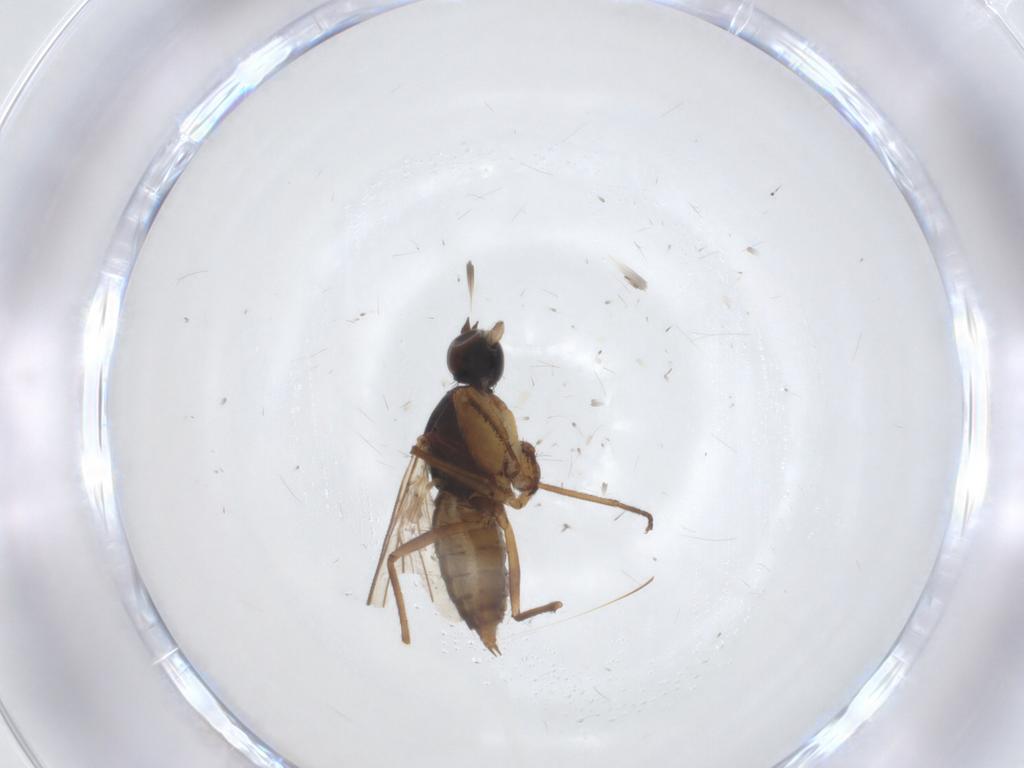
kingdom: Animalia
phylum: Arthropoda
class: Insecta
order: Diptera
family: Empididae
